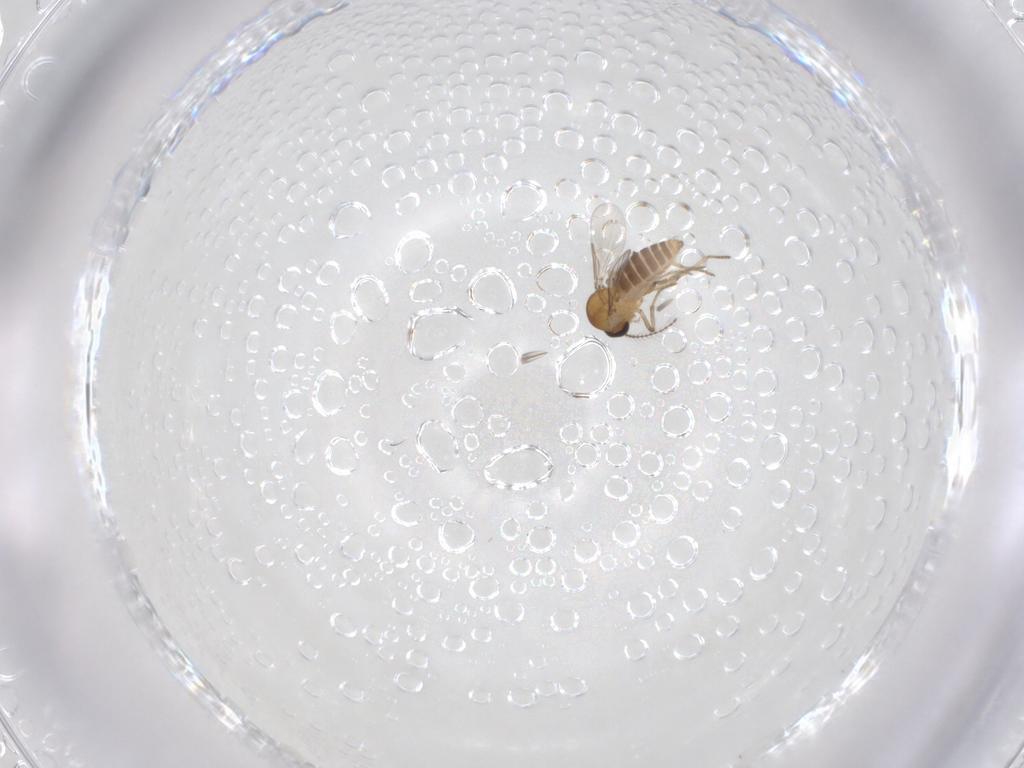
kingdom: Animalia
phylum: Arthropoda
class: Insecta
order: Diptera
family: Ceratopogonidae
